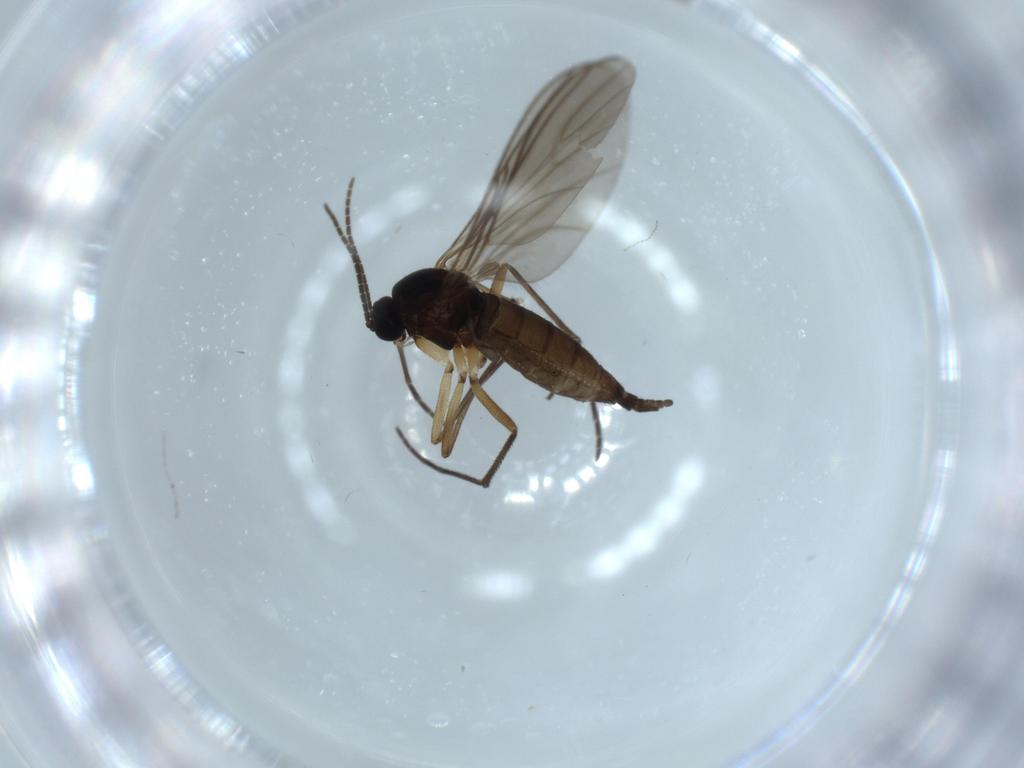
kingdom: Animalia
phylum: Arthropoda
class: Insecta
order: Diptera
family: Sciaridae
